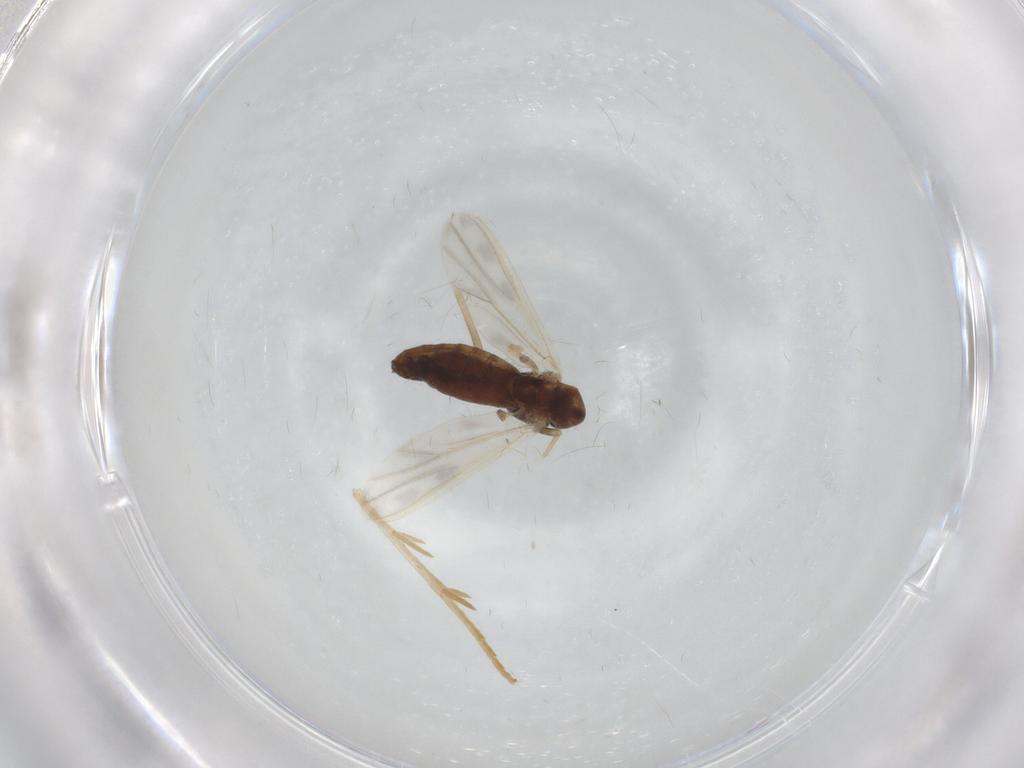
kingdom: Animalia
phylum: Arthropoda
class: Insecta
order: Diptera
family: Chironomidae
